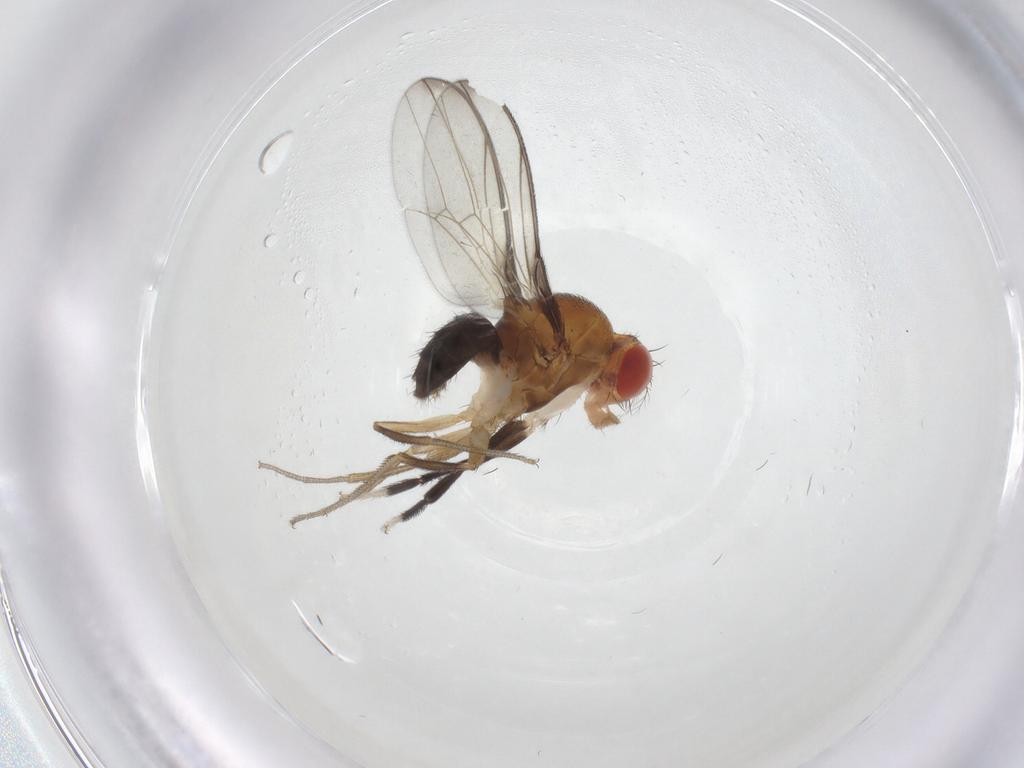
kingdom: Animalia
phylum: Arthropoda
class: Insecta
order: Diptera
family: Drosophilidae
